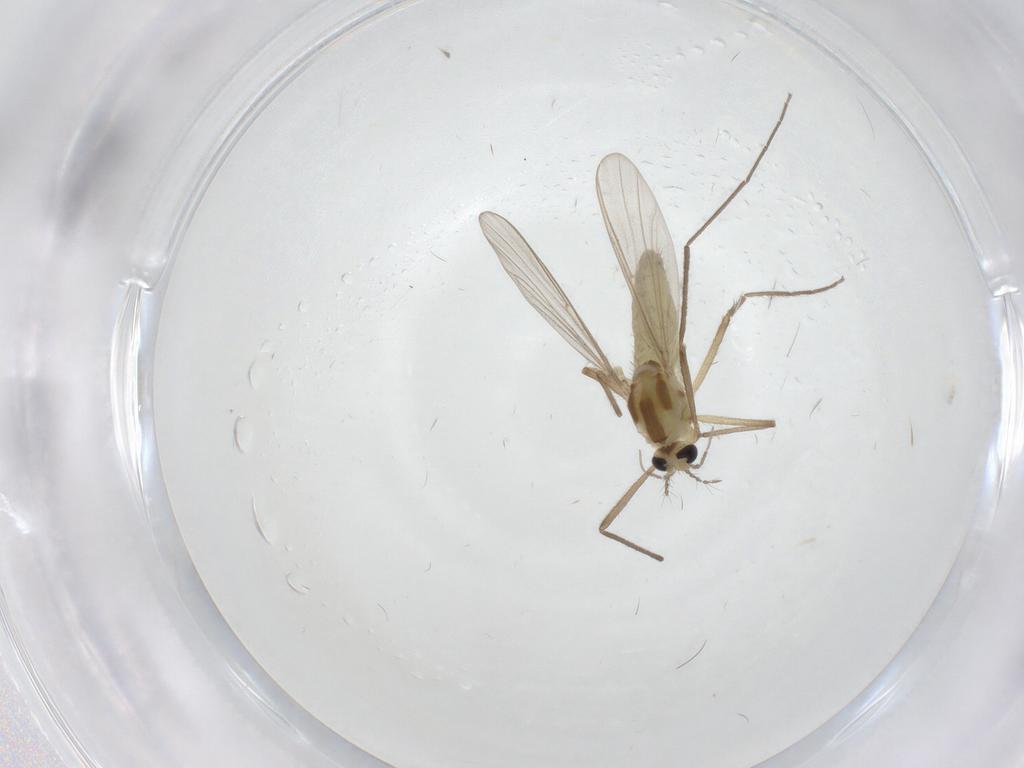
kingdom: Animalia
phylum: Arthropoda
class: Insecta
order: Diptera
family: Chironomidae
